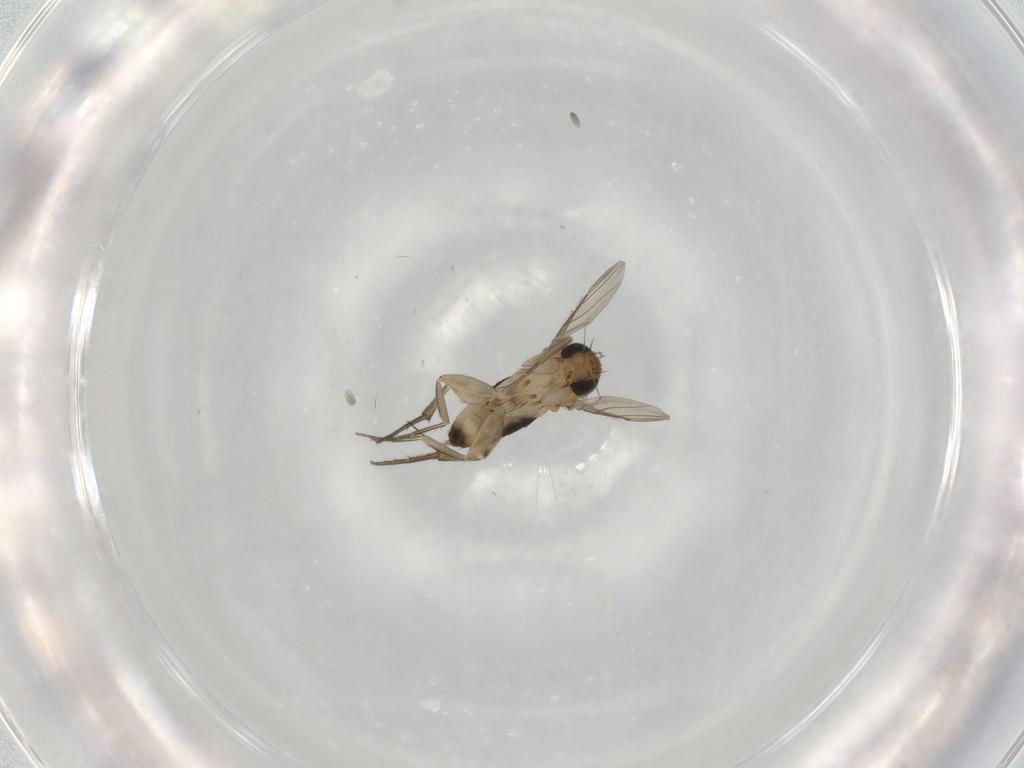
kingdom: Animalia
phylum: Arthropoda
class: Insecta
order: Diptera
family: Phoridae
